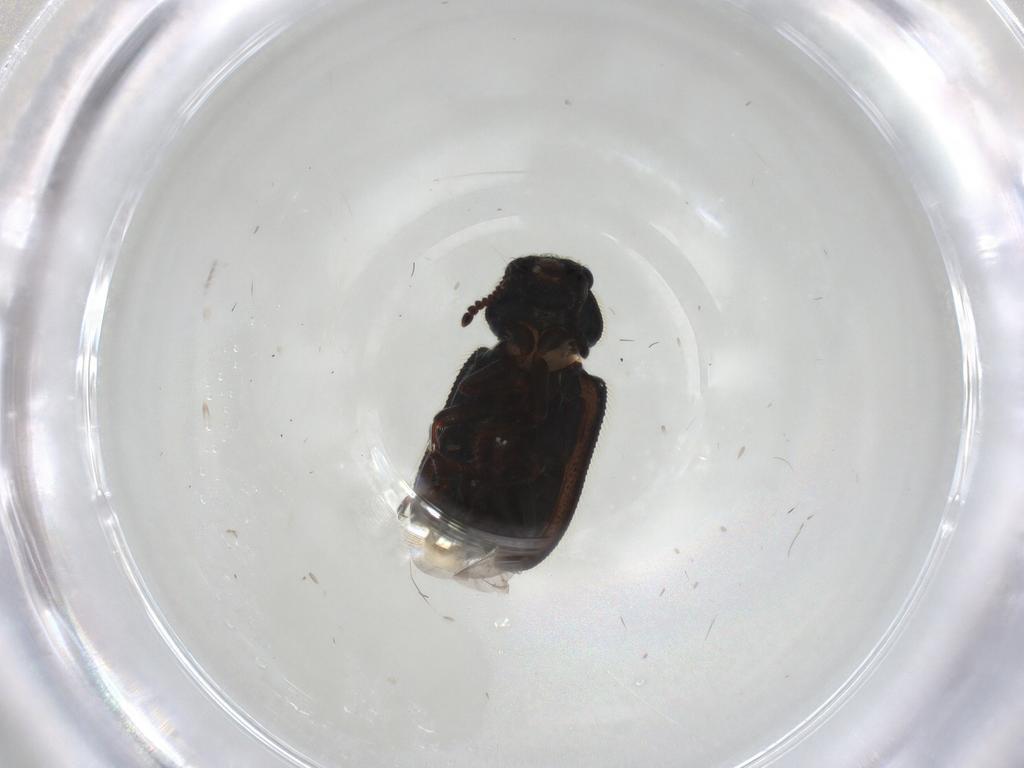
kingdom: Animalia
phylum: Arthropoda
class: Insecta
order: Coleoptera
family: Melyridae
